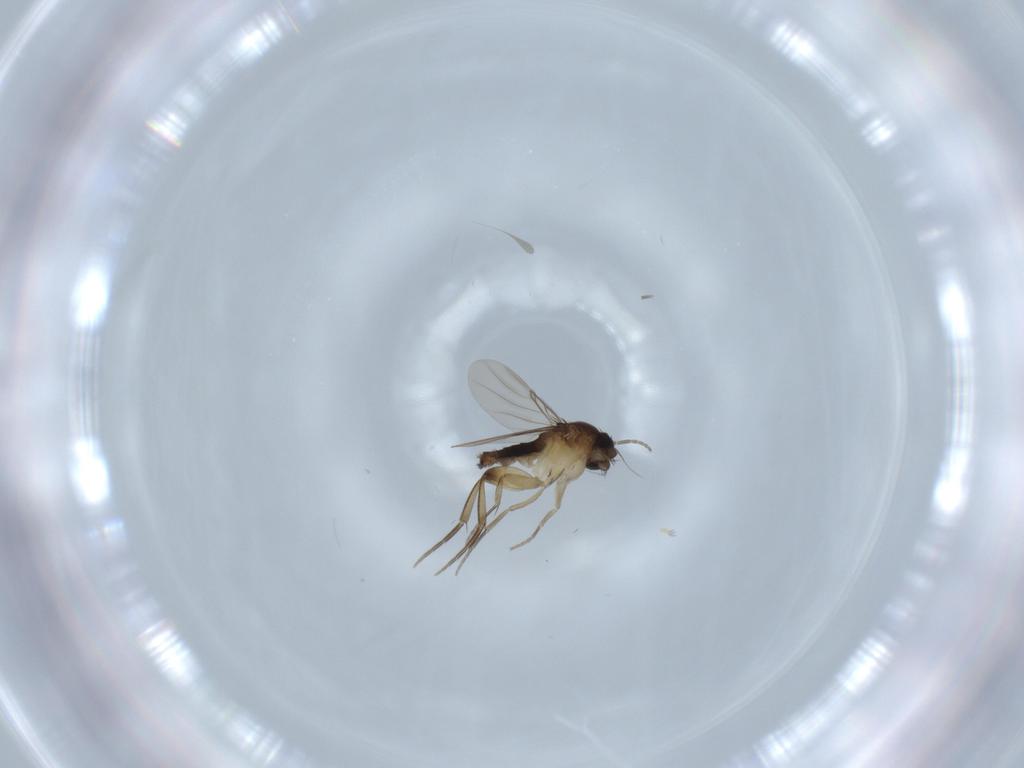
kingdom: Animalia
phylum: Arthropoda
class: Insecta
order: Diptera
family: Phoridae
